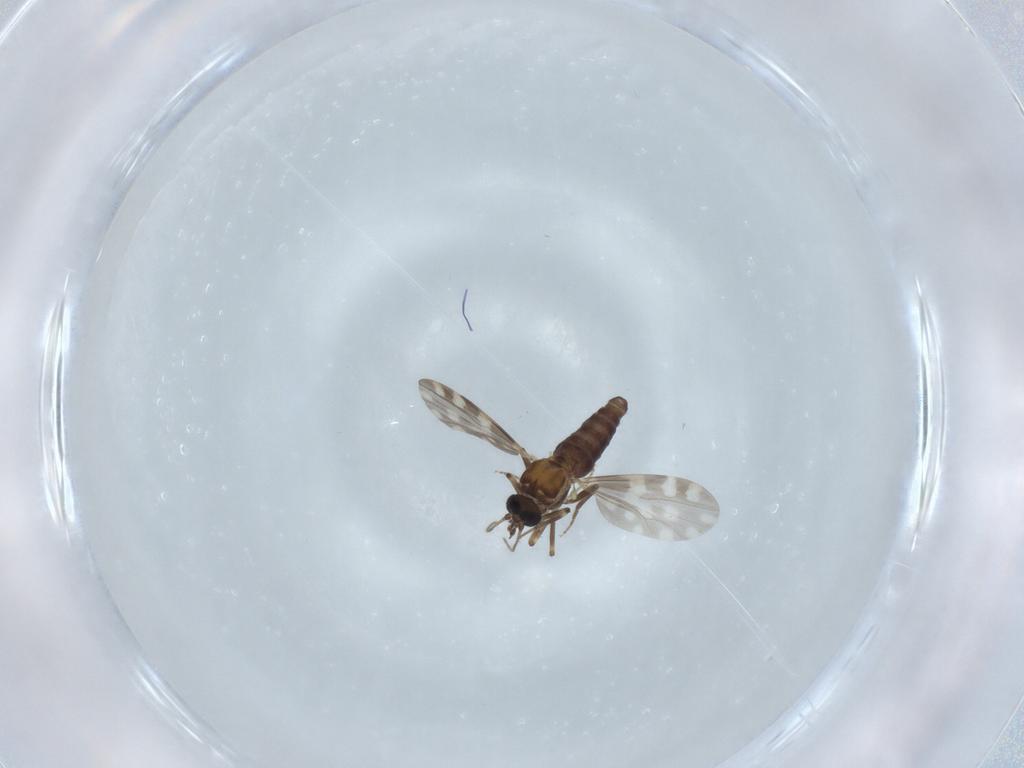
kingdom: Animalia
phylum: Arthropoda
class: Insecta
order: Diptera
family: Ceratopogonidae
